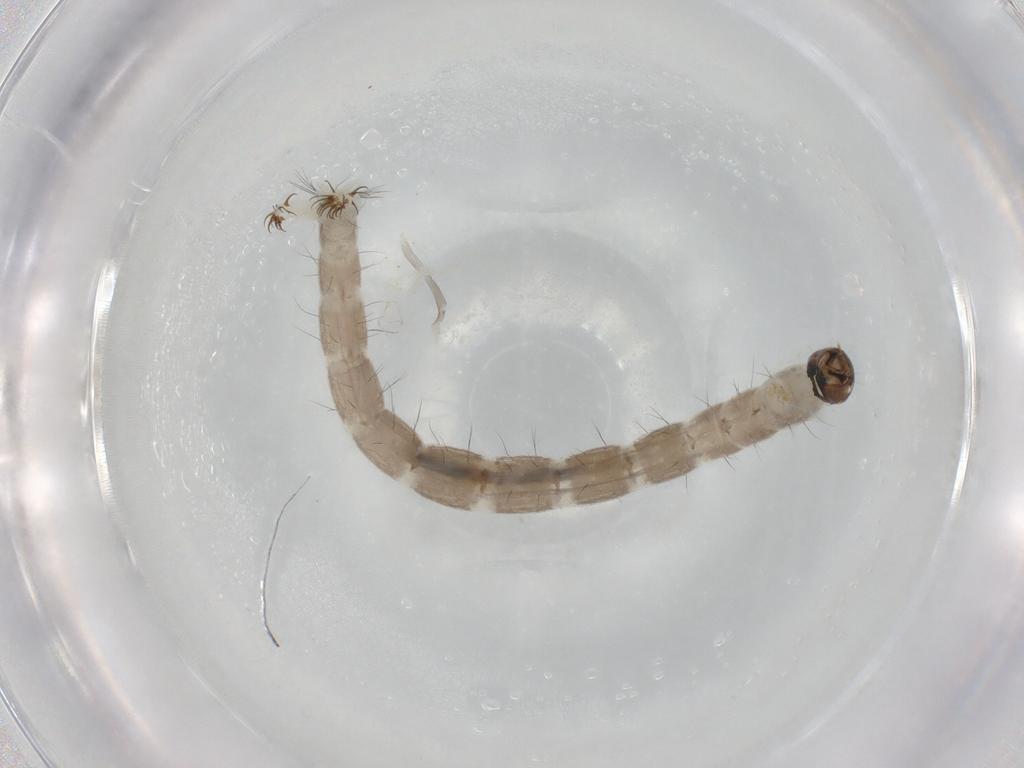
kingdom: Animalia
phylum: Arthropoda
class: Insecta
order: Diptera
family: Chironomidae
